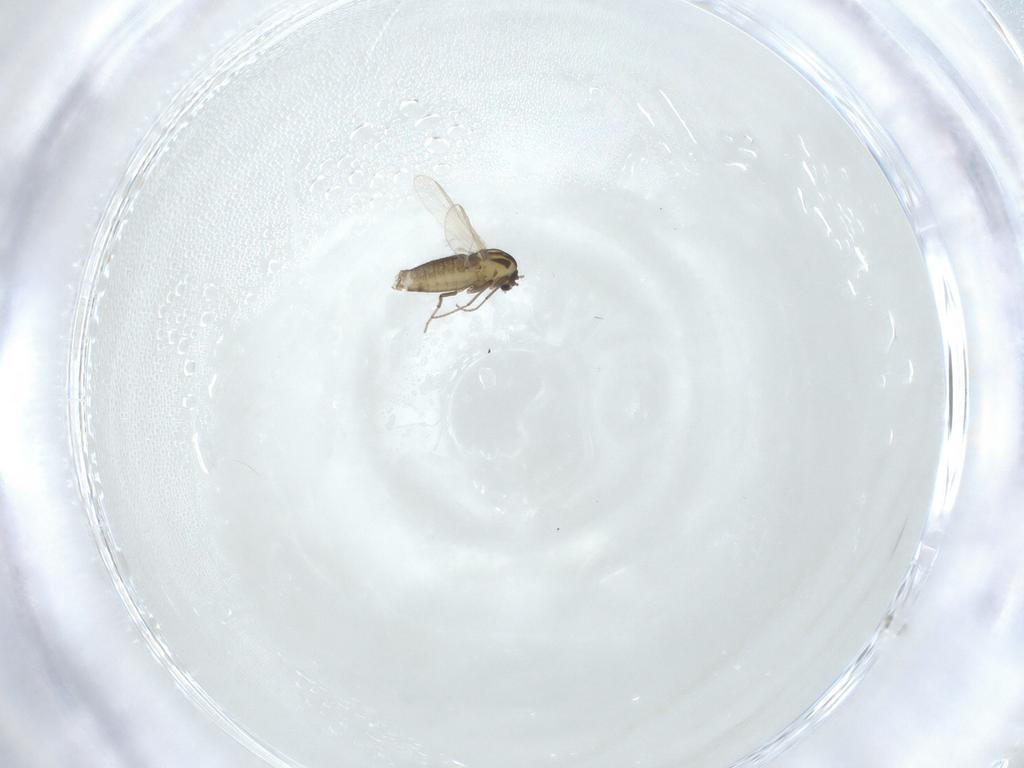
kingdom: Animalia
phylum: Arthropoda
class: Insecta
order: Diptera
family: Chironomidae
